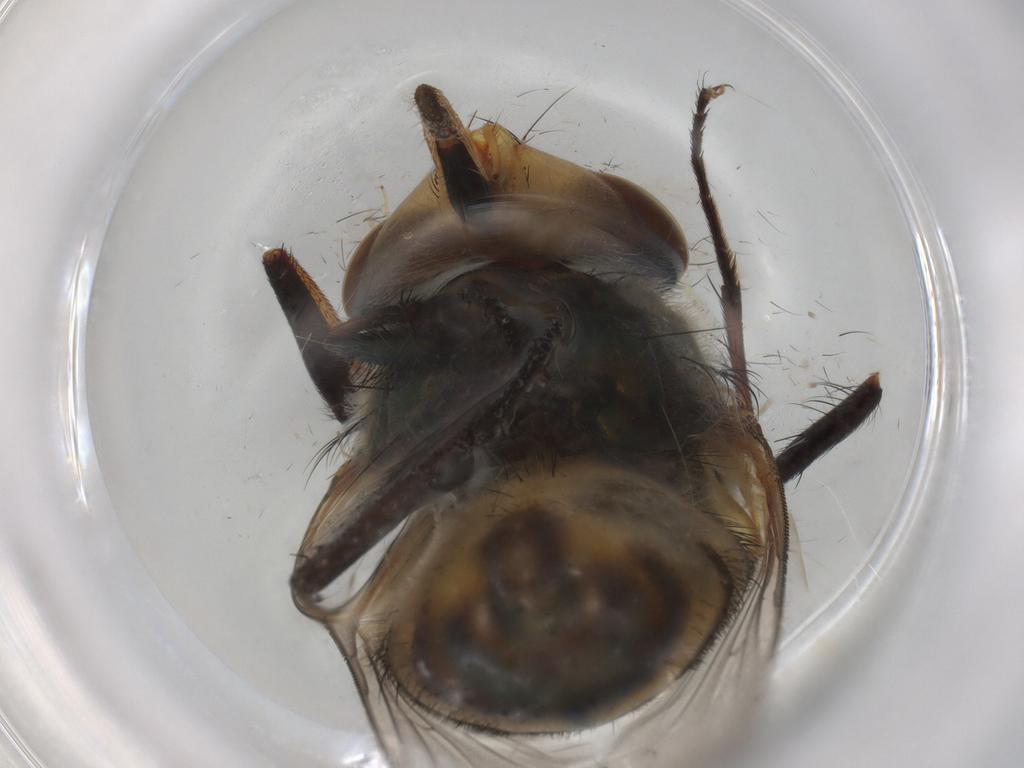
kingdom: Animalia
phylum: Arthropoda
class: Insecta
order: Diptera
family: Tachinidae
